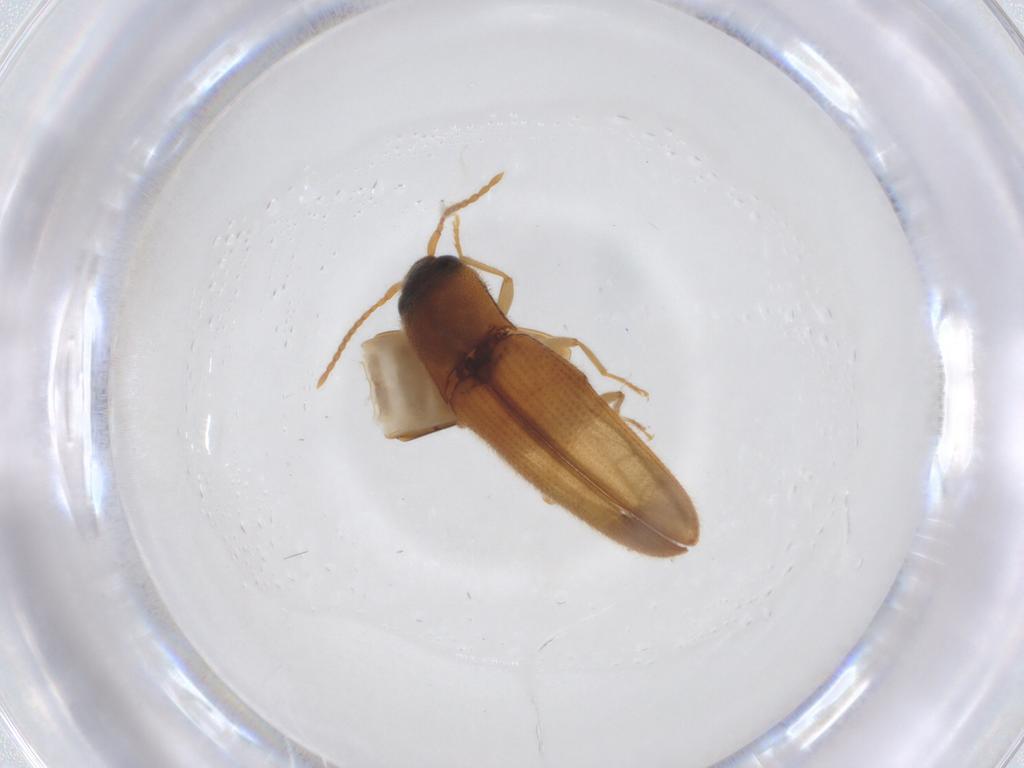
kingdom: Animalia
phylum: Arthropoda
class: Insecta
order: Coleoptera
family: Elateridae
